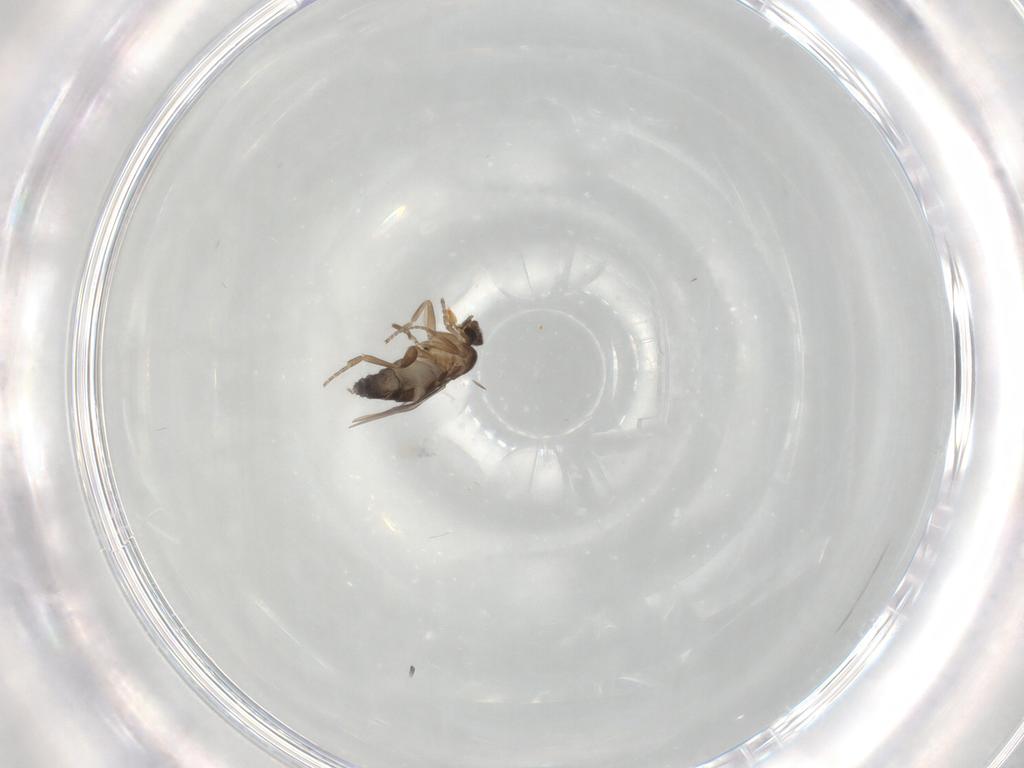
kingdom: Animalia
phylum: Arthropoda
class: Insecta
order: Diptera
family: Phoridae
